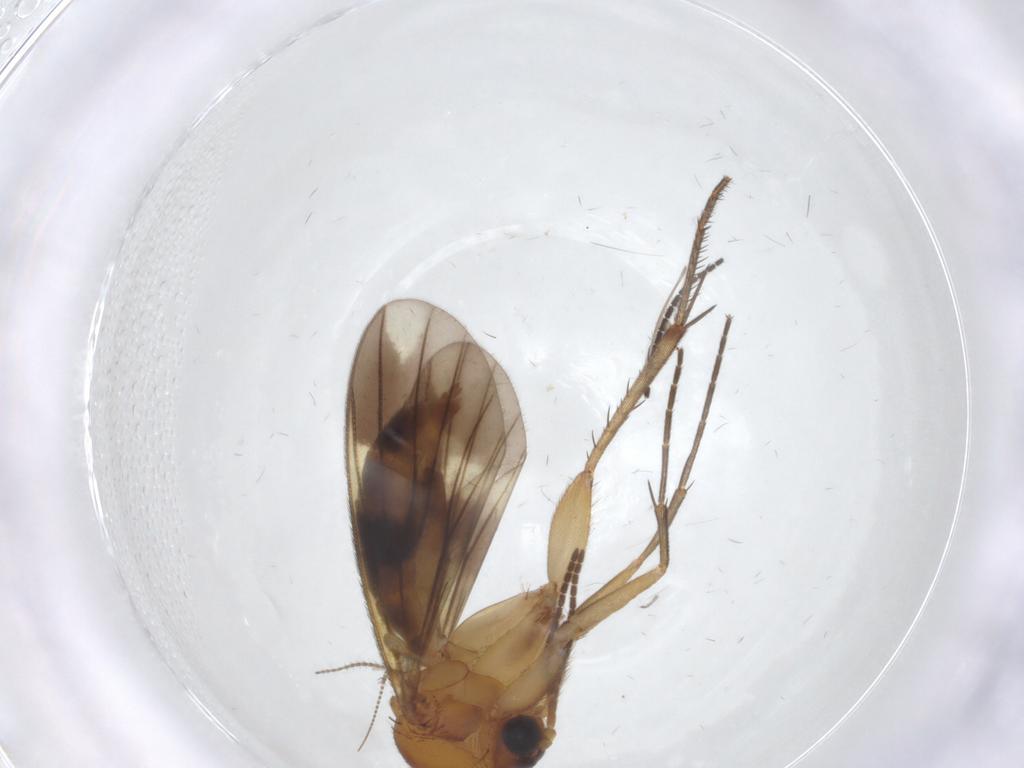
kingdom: Animalia
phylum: Arthropoda
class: Insecta
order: Diptera
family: Mycetophilidae
